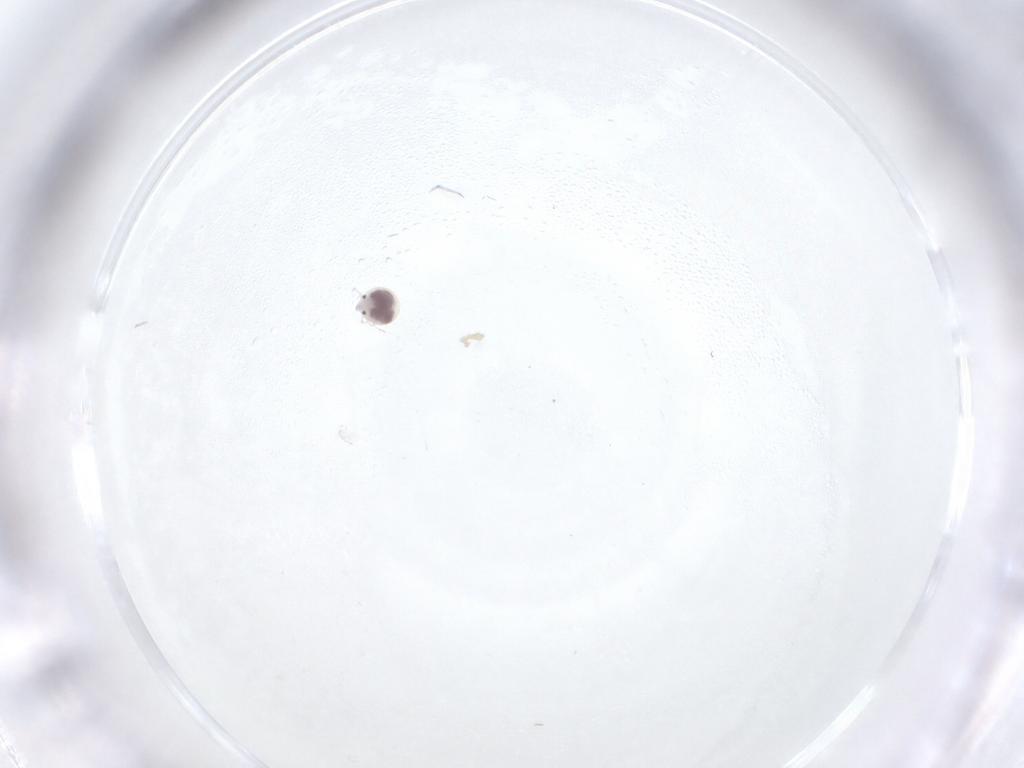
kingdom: Animalia
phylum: Arthropoda
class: Arachnida
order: Trombidiformes
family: Pionidae
